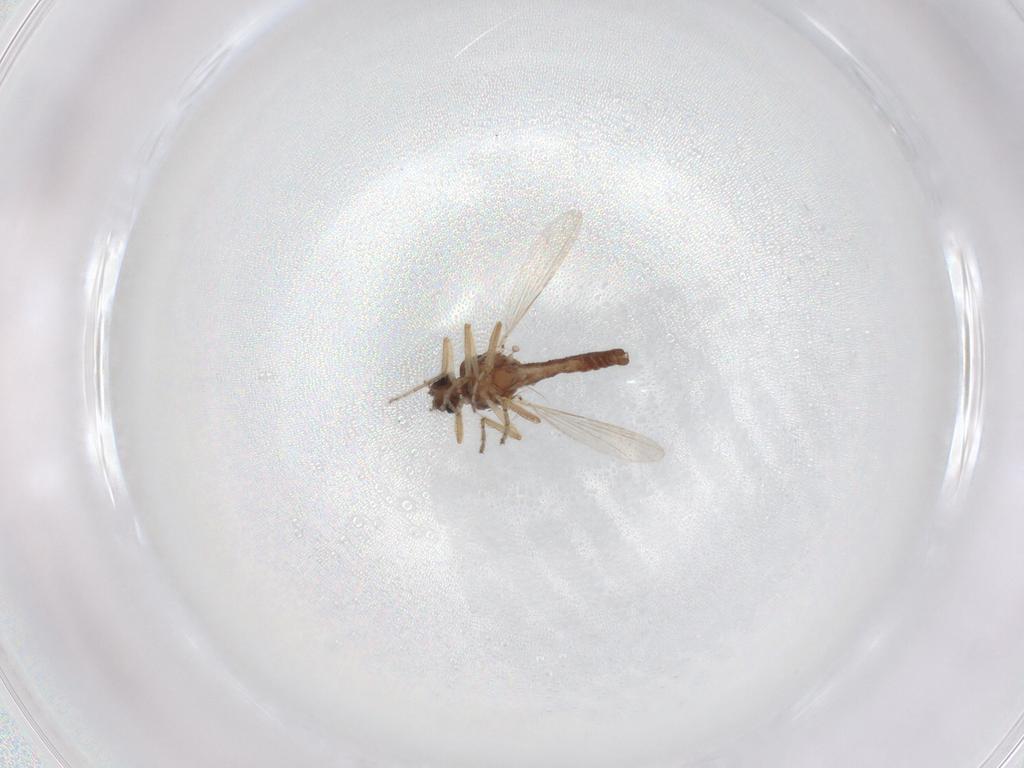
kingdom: Animalia
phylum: Arthropoda
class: Insecta
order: Diptera
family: Ceratopogonidae
